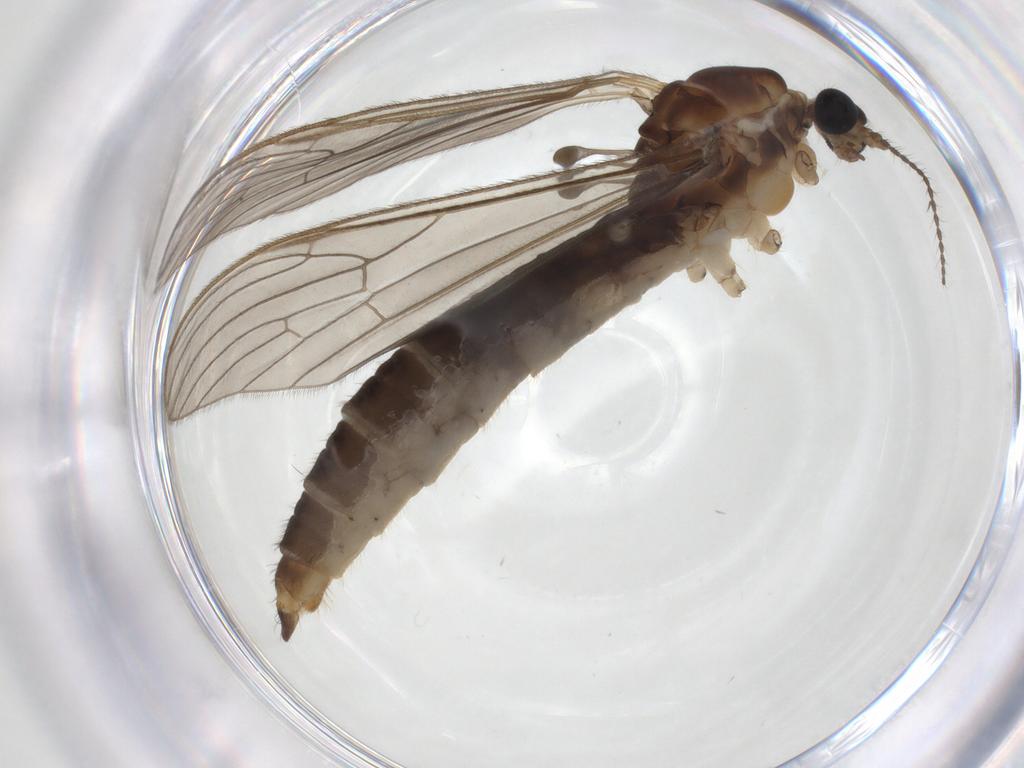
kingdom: Animalia
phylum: Arthropoda
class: Insecta
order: Diptera
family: Limoniidae
